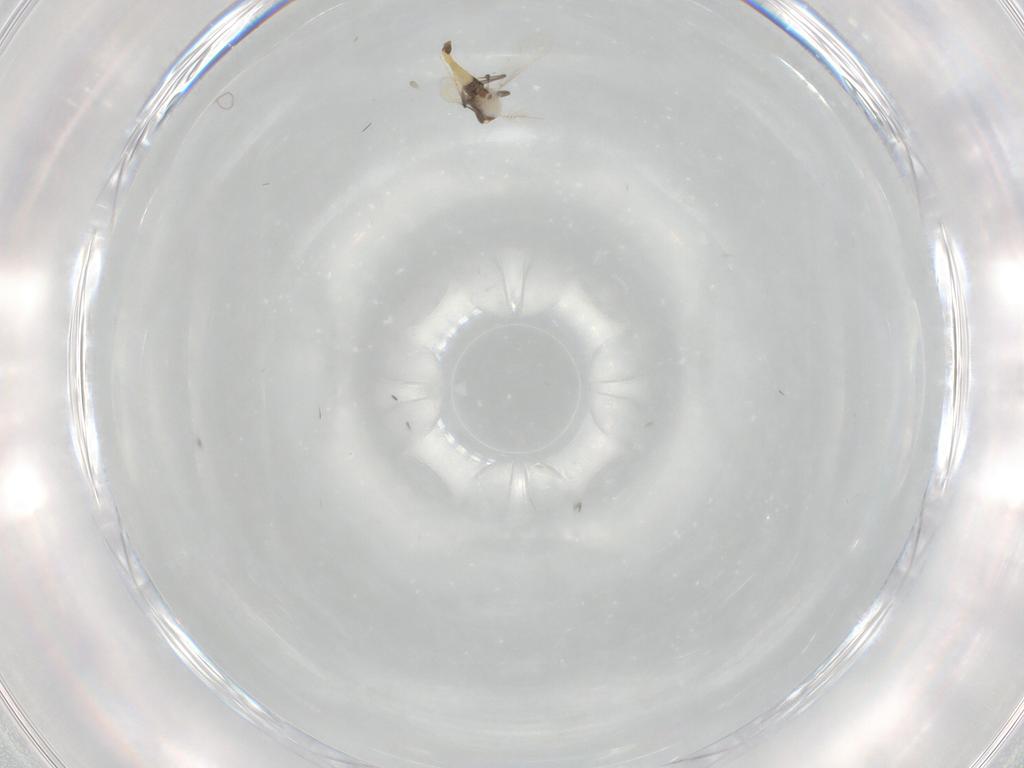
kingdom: Animalia
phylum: Arthropoda
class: Insecta
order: Diptera
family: Chironomidae
